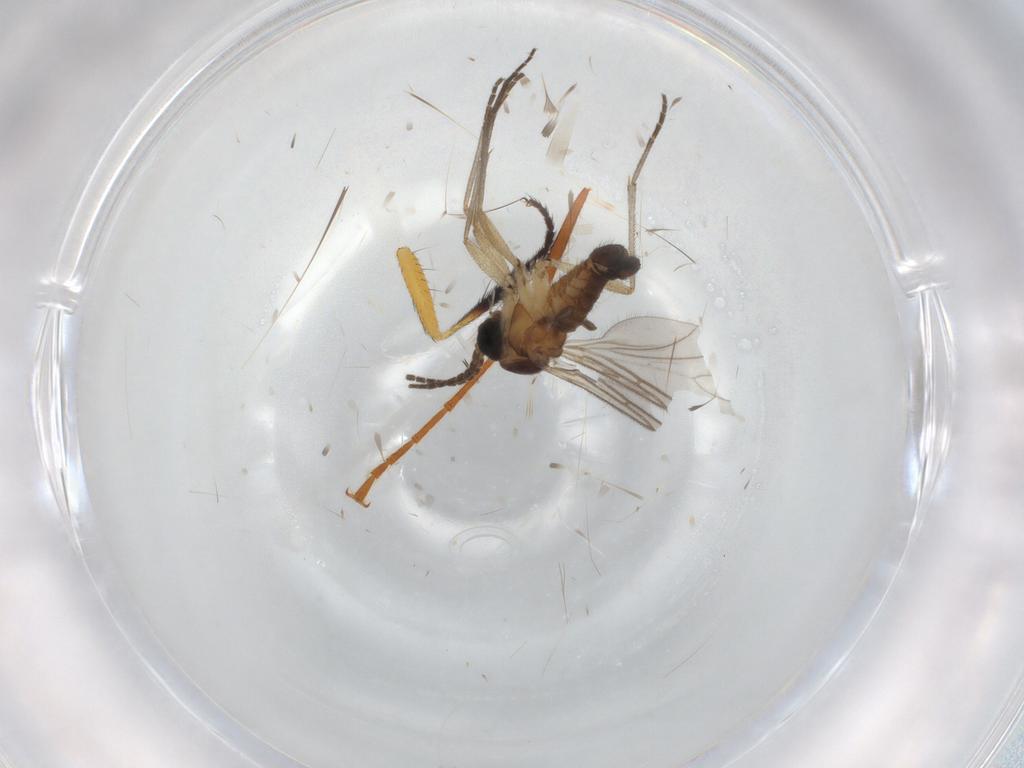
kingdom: Animalia
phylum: Arthropoda
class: Insecta
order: Diptera
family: Sciaridae
